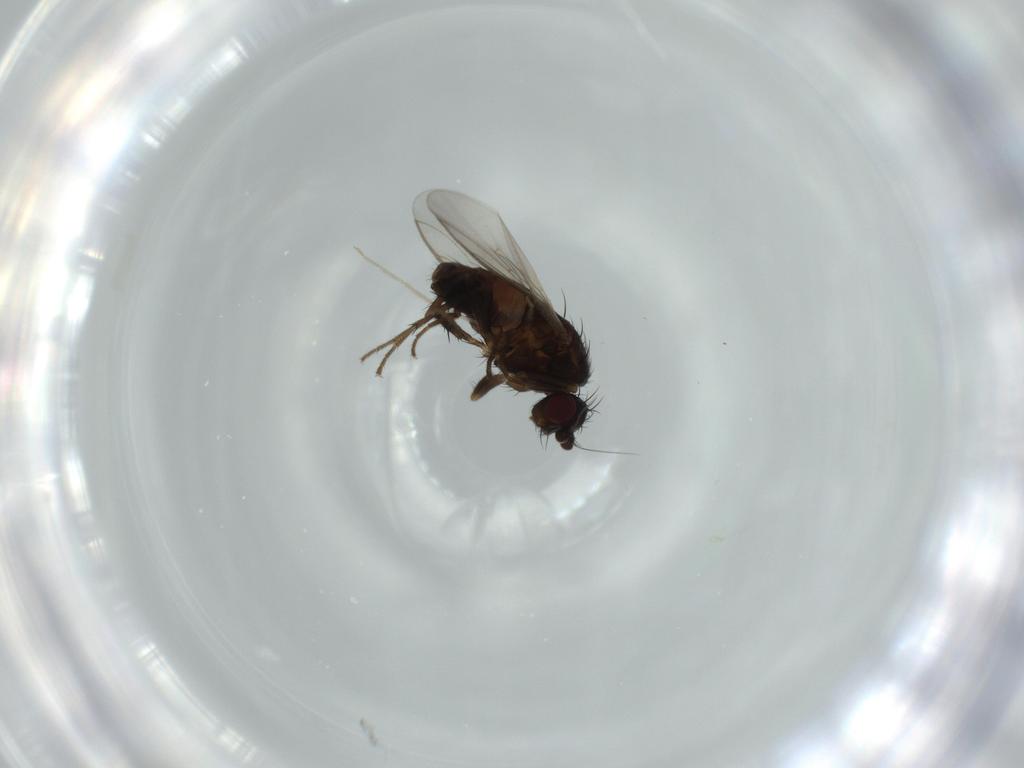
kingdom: Animalia
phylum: Arthropoda
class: Insecta
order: Diptera
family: Sphaeroceridae
